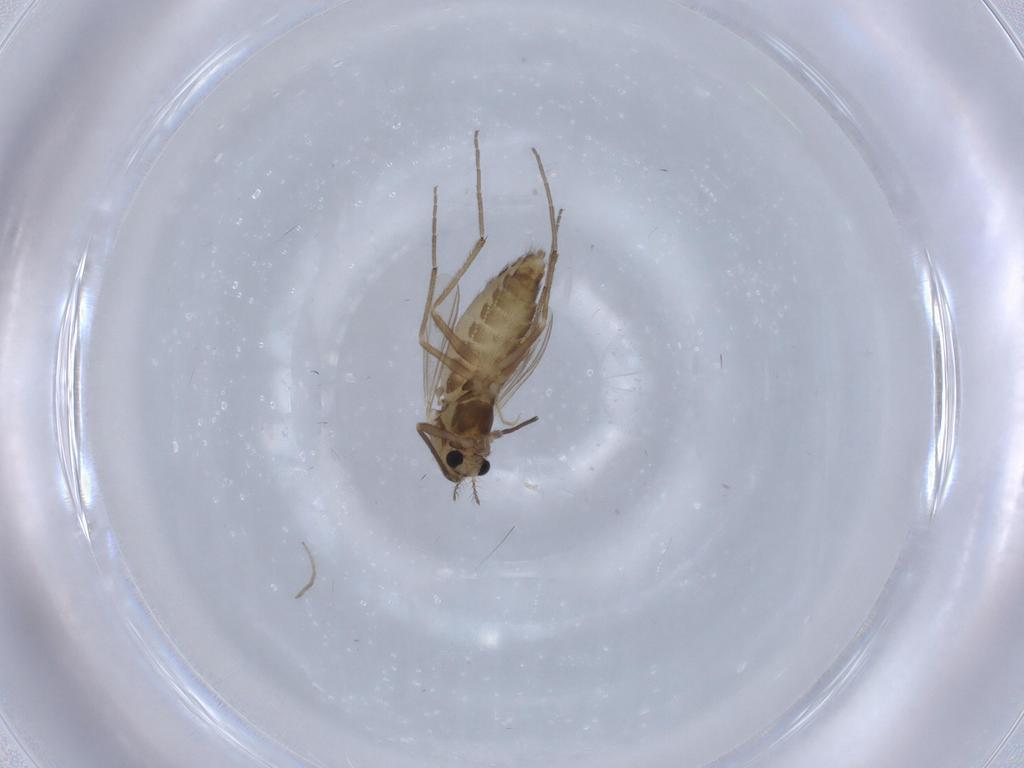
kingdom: Animalia
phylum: Arthropoda
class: Insecta
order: Diptera
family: Chironomidae
